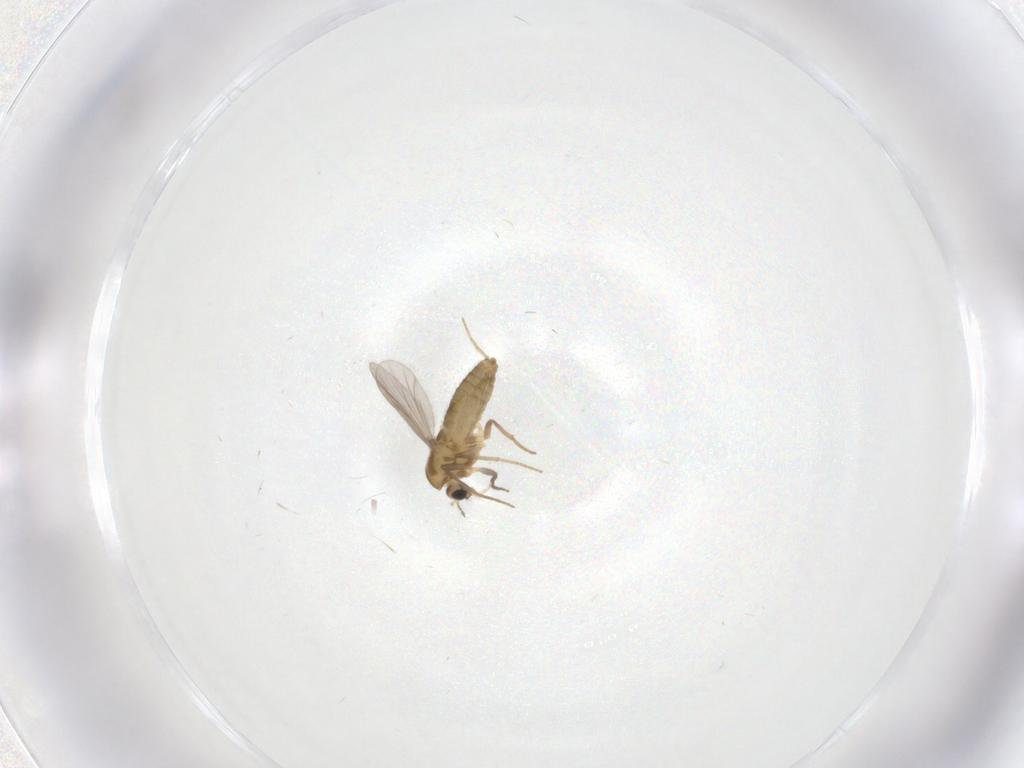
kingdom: Animalia
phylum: Arthropoda
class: Insecta
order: Diptera
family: Chironomidae
